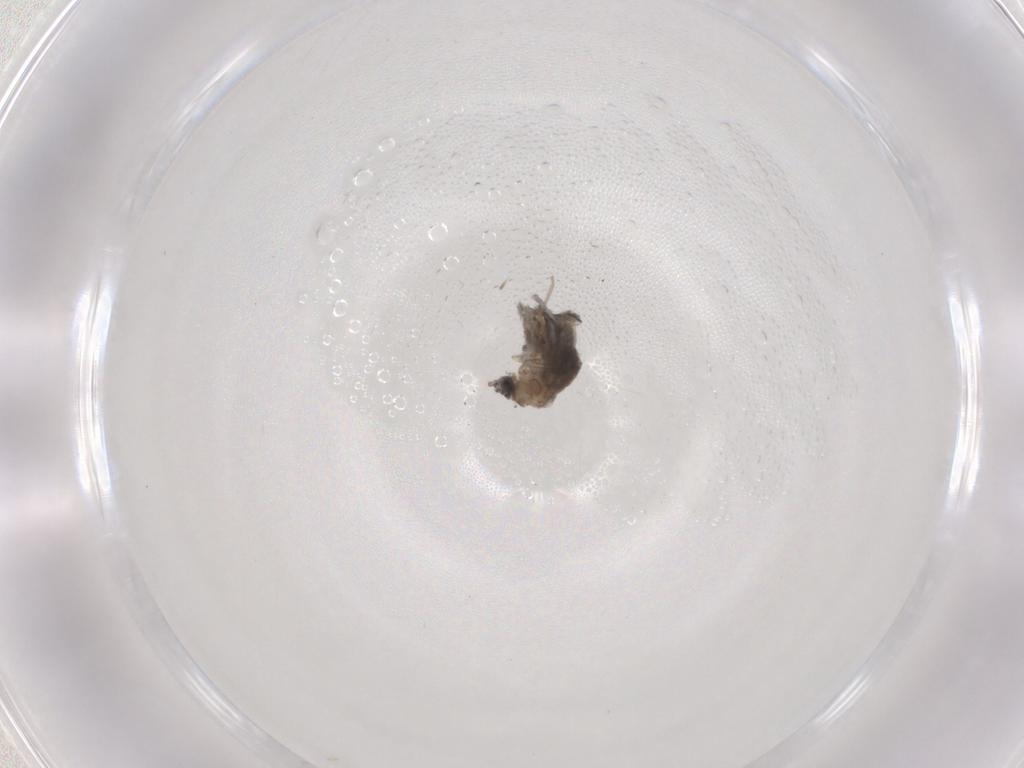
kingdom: Animalia
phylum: Arthropoda
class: Insecta
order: Diptera
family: Cecidomyiidae
